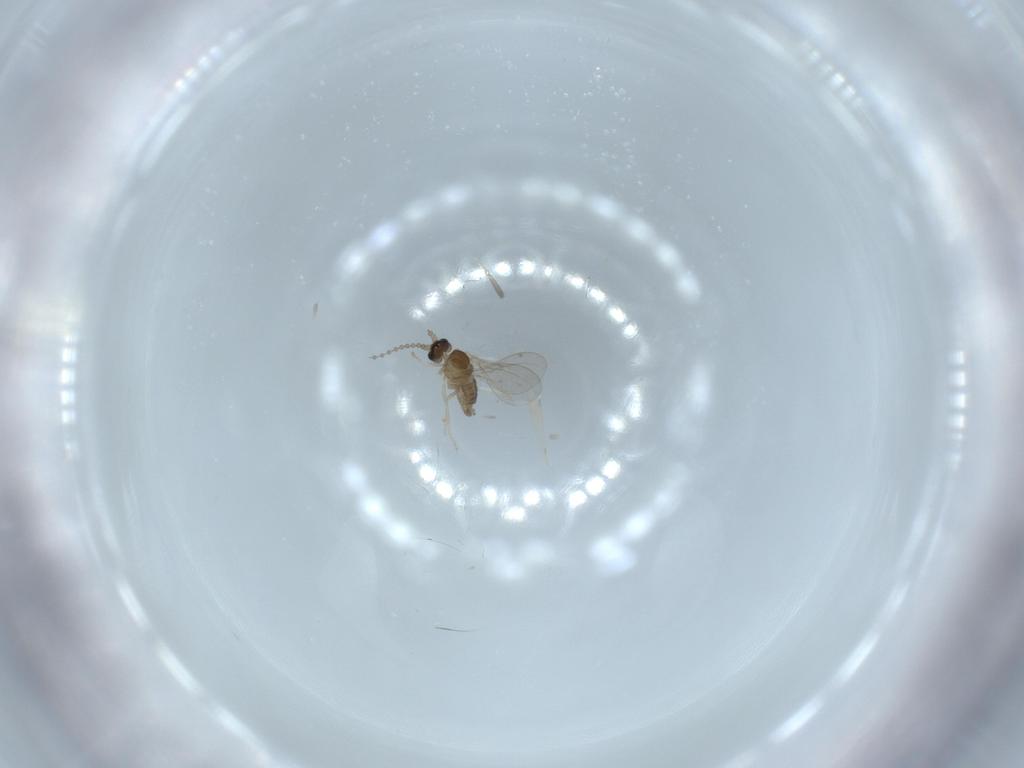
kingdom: Animalia
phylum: Arthropoda
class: Insecta
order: Diptera
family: Cecidomyiidae
